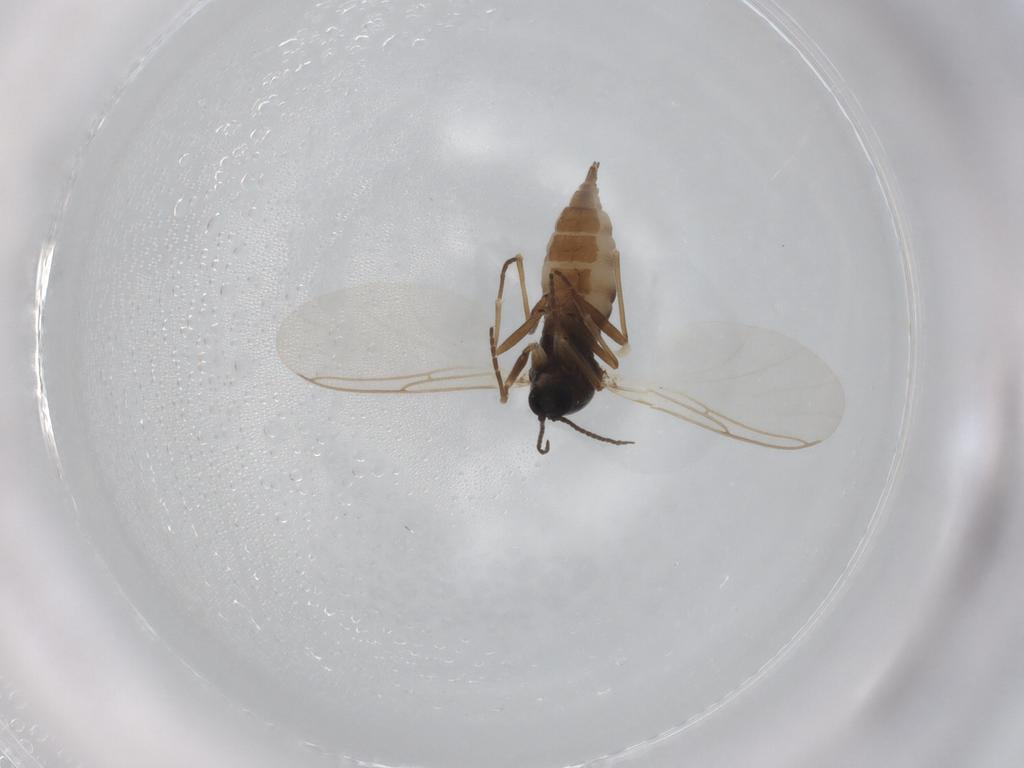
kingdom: Animalia
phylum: Arthropoda
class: Insecta
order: Diptera
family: Sciaridae
